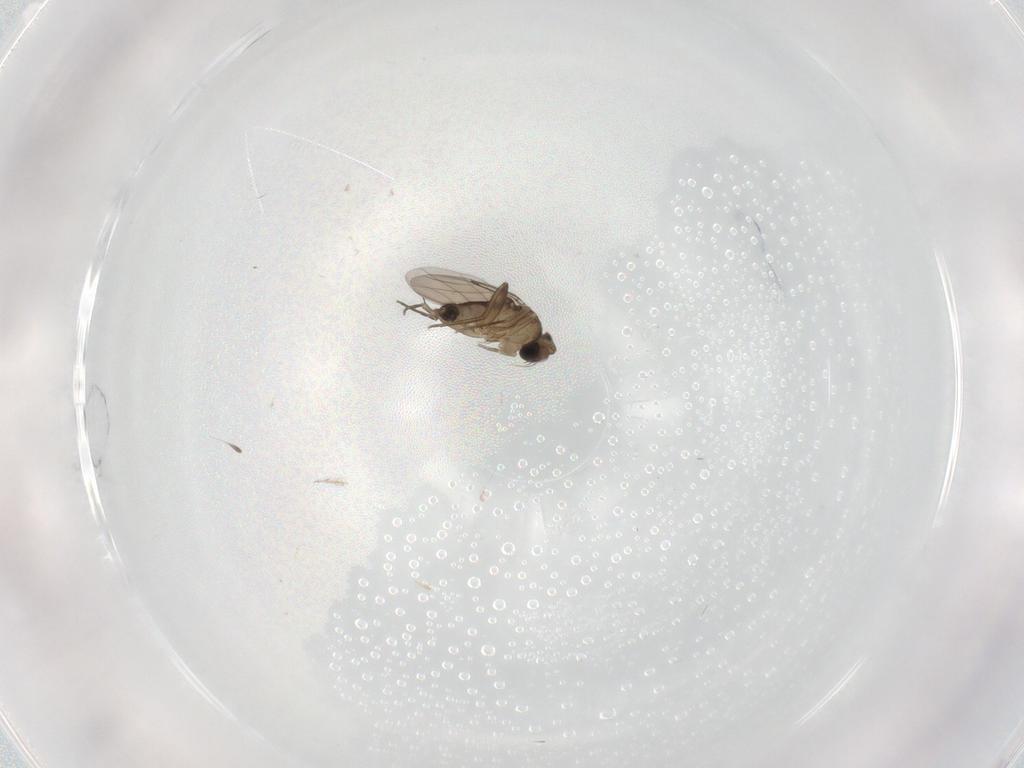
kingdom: Animalia
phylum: Arthropoda
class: Insecta
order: Diptera
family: Phoridae
